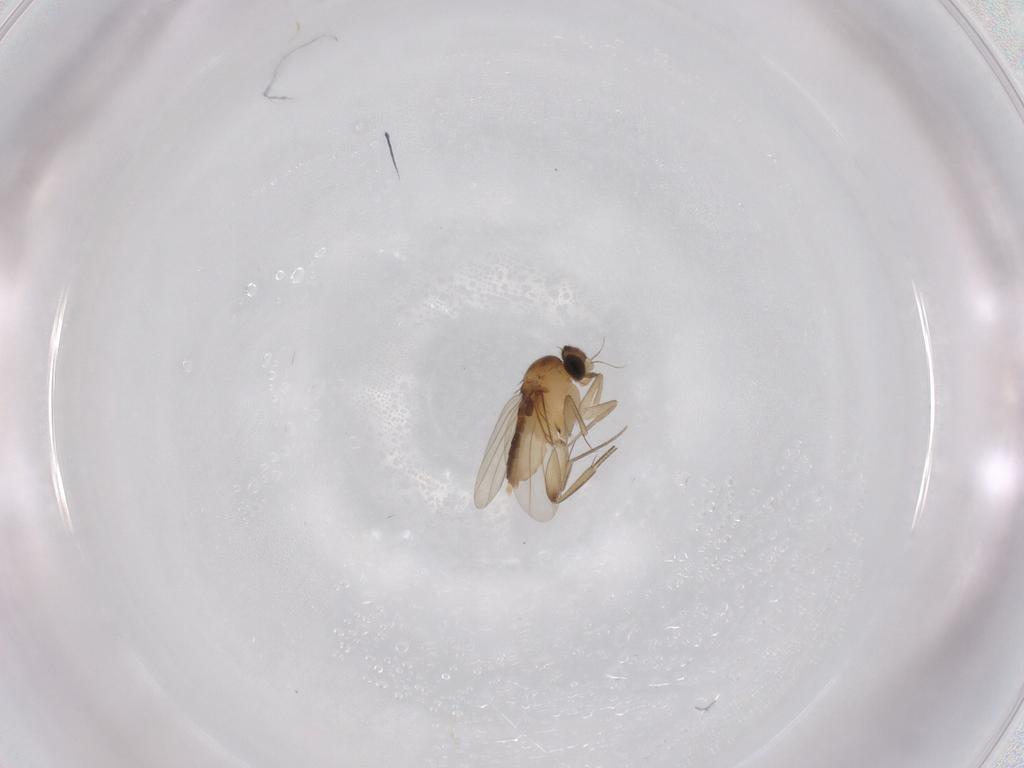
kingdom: Animalia
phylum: Arthropoda
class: Insecta
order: Diptera
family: Phoridae
